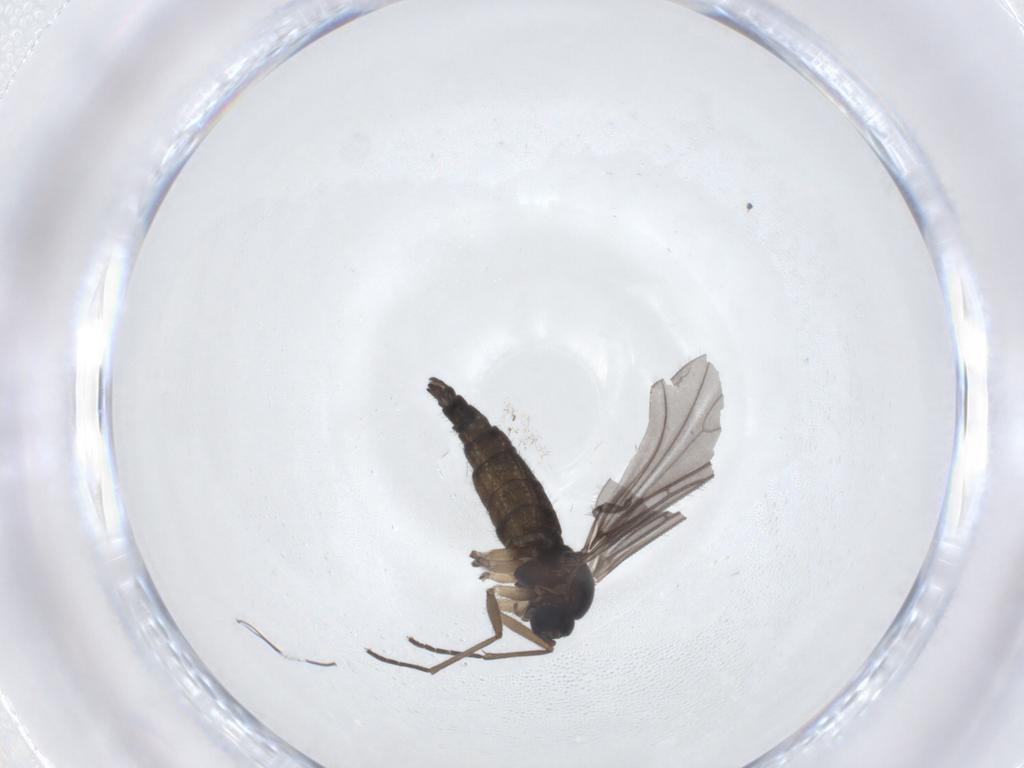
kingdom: Animalia
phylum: Arthropoda
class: Insecta
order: Diptera
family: Sciaridae
